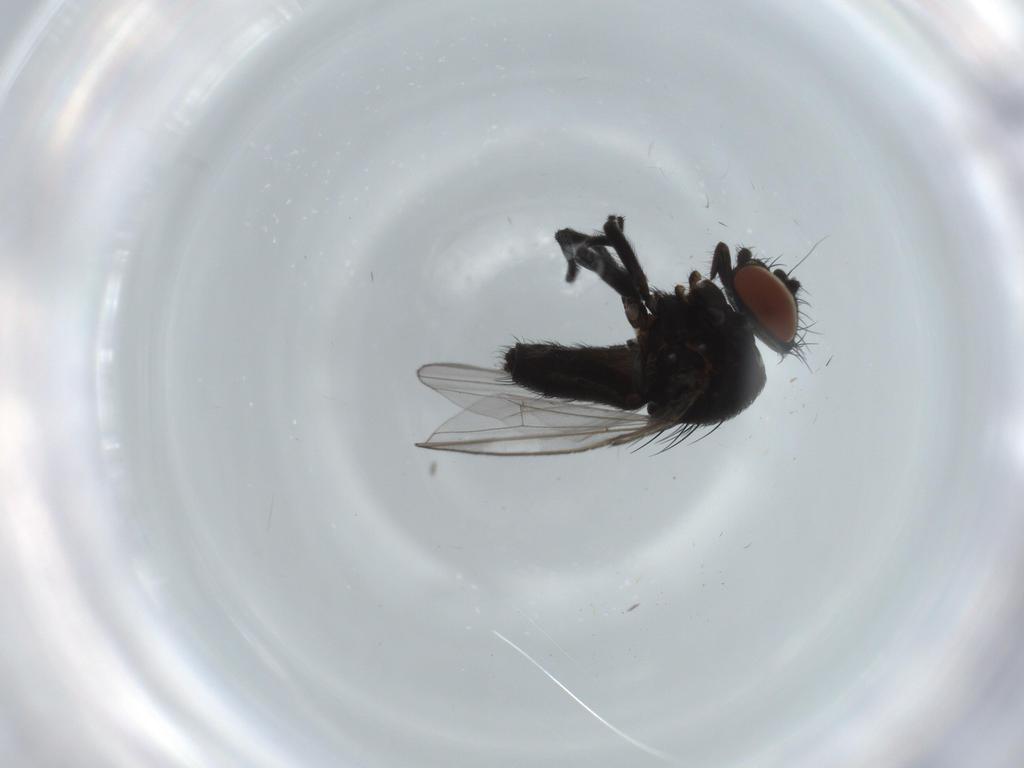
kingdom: Animalia
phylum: Arthropoda
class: Insecta
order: Diptera
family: Milichiidae
